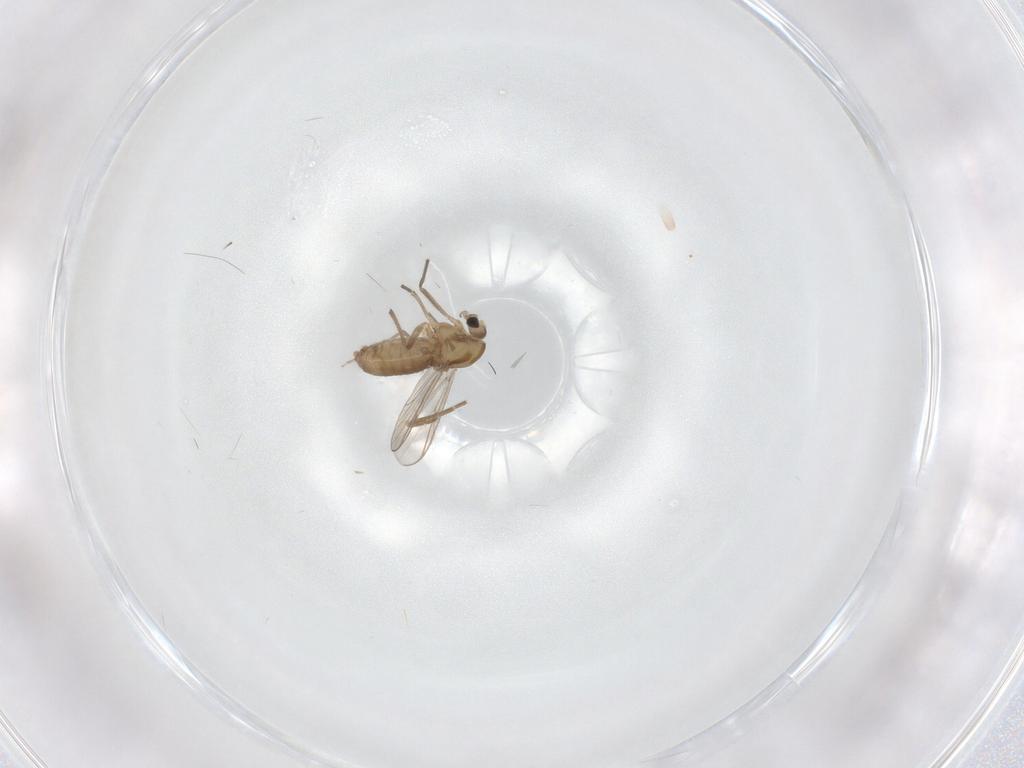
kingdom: Animalia
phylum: Arthropoda
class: Insecta
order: Diptera
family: Chironomidae
